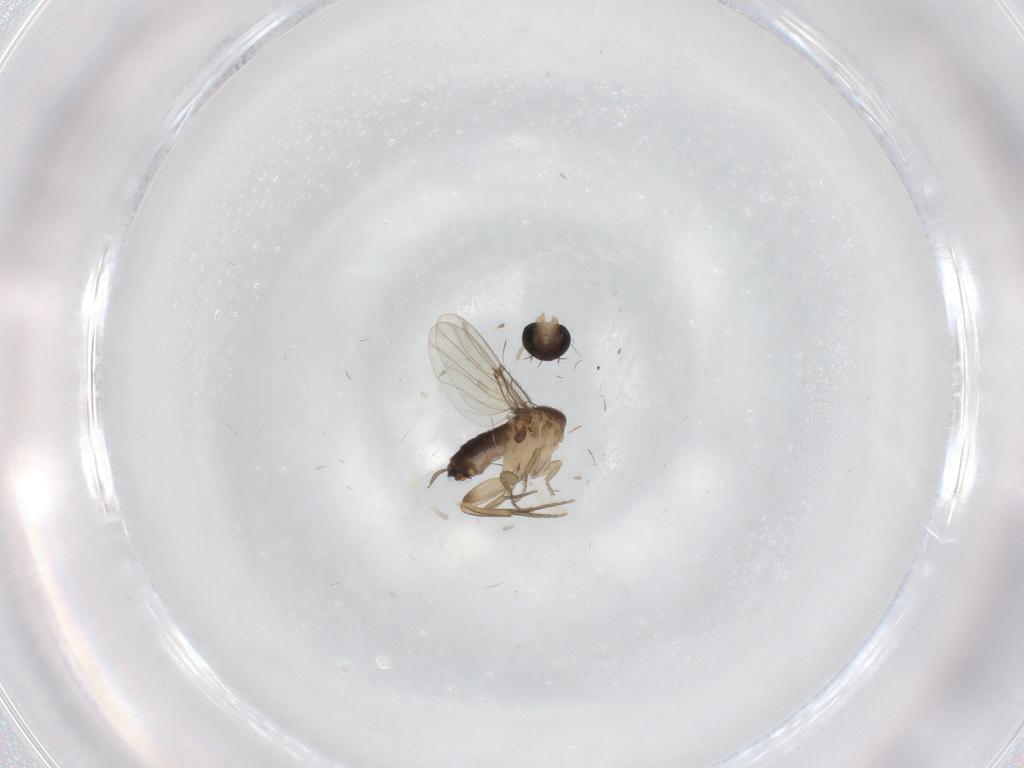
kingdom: Animalia
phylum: Arthropoda
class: Insecta
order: Diptera
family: Phoridae
